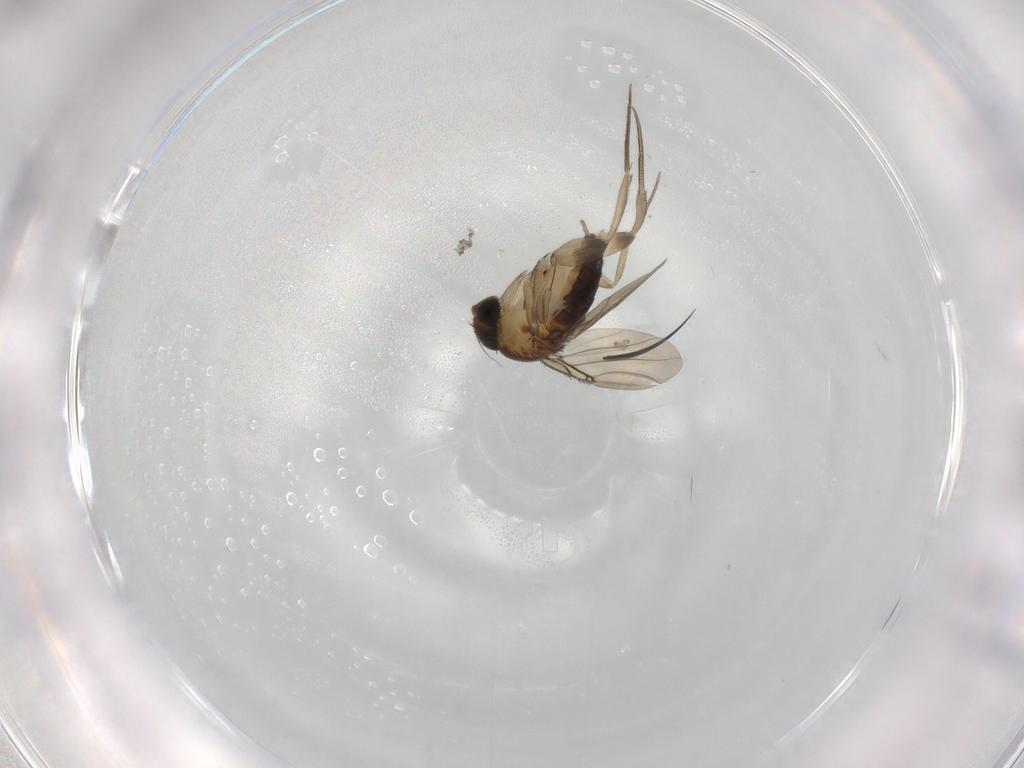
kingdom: Animalia
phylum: Arthropoda
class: Insecta
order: Diptera
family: Phoridae
